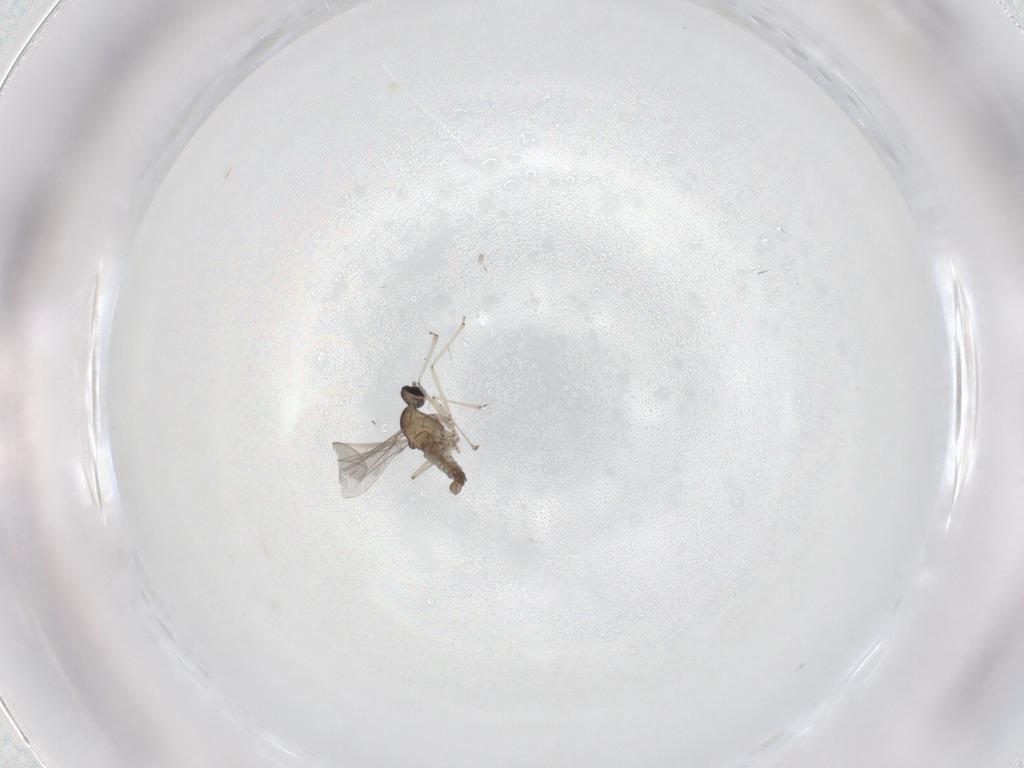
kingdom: Animalia
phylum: Arthropoda
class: Insecta
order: Diptera
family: Cecidomyiidae
